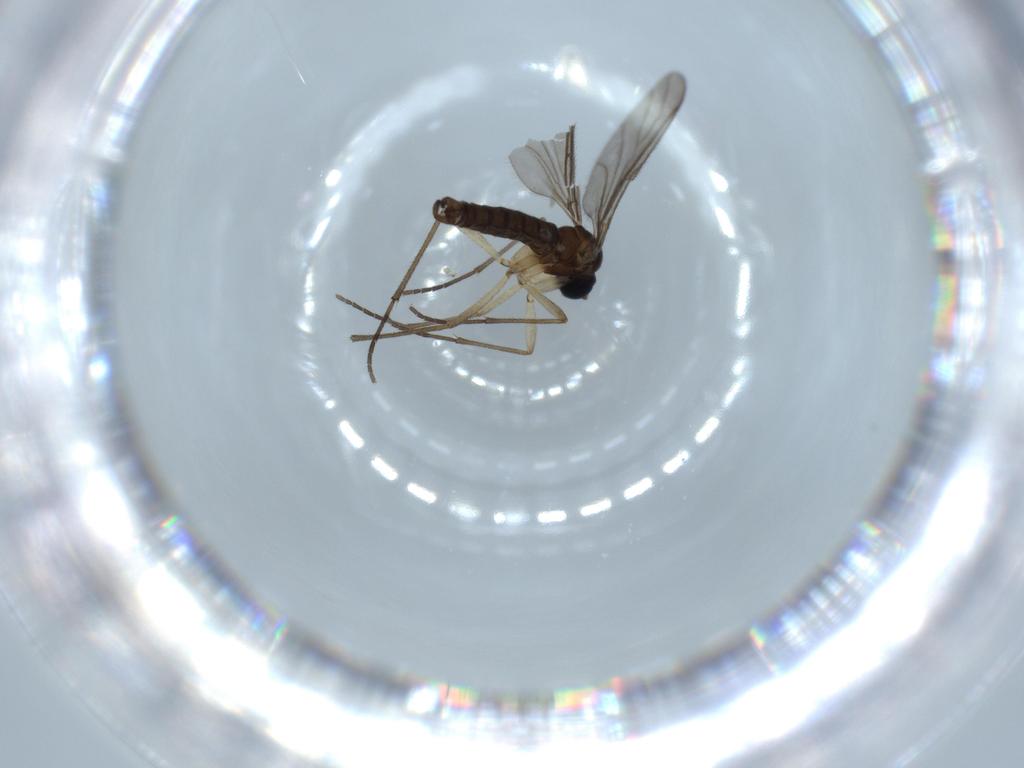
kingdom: Animalia
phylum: Arthropoda
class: Insecta
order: Diptera
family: Sciaridae
